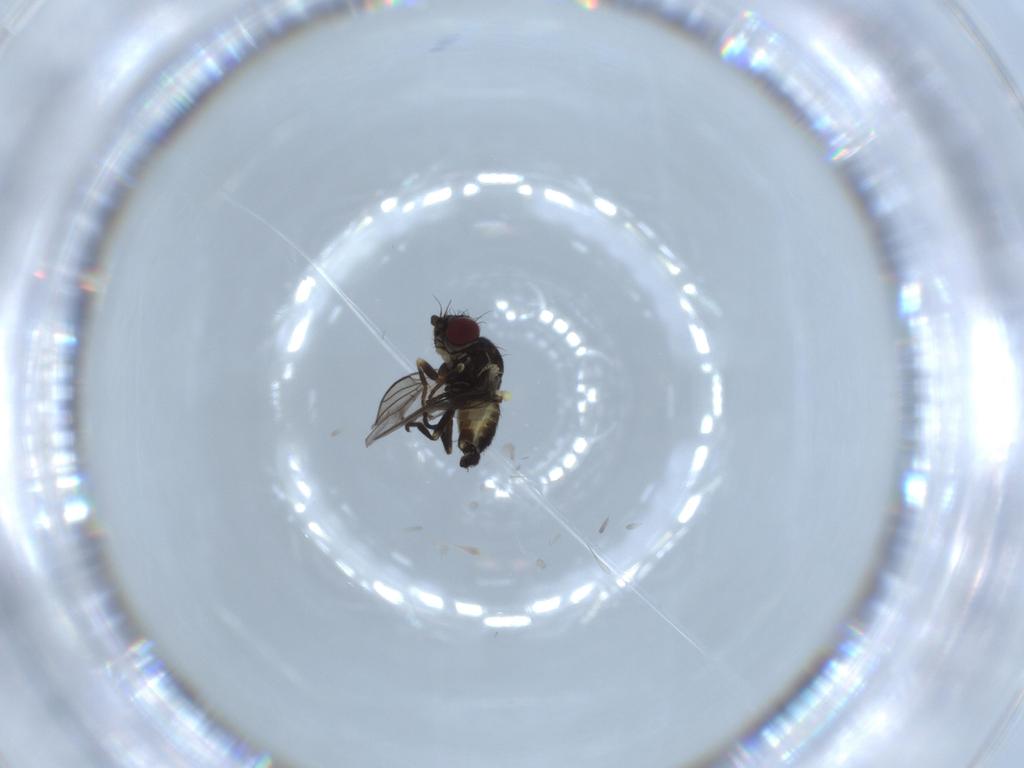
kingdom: Animalia
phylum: Arthropoda
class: Insecta
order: Diptera
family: Agromyzidae
